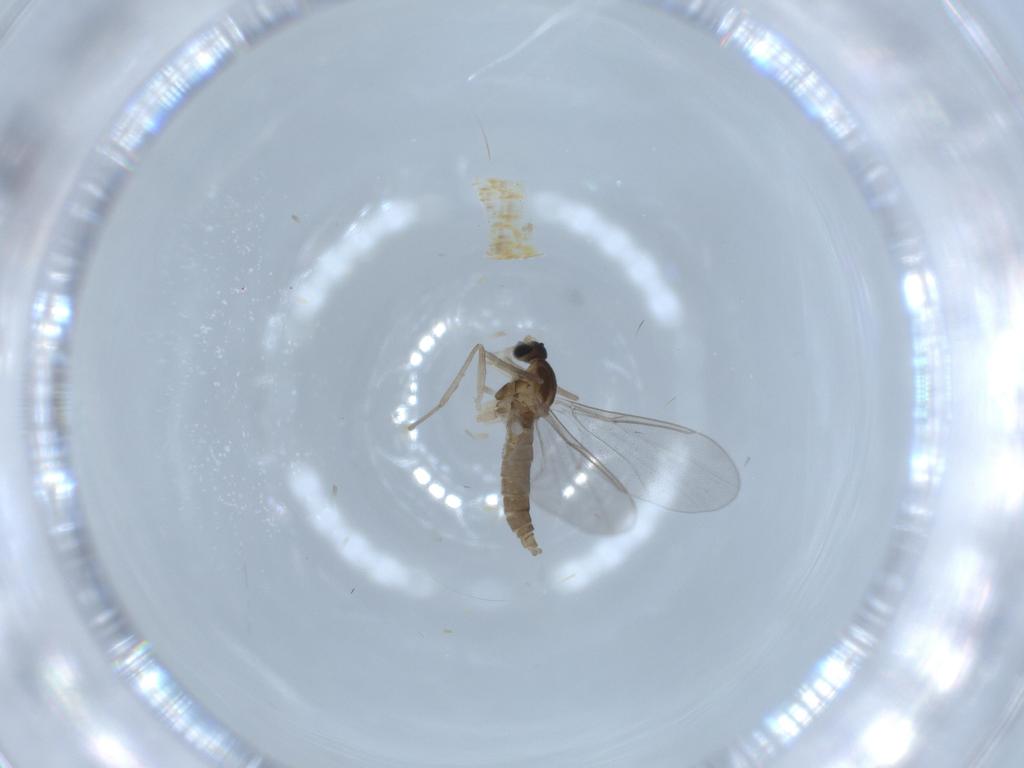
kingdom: Animalia
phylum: Arthropoda
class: Insecta
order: Diptera
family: Cecidomyiidae
